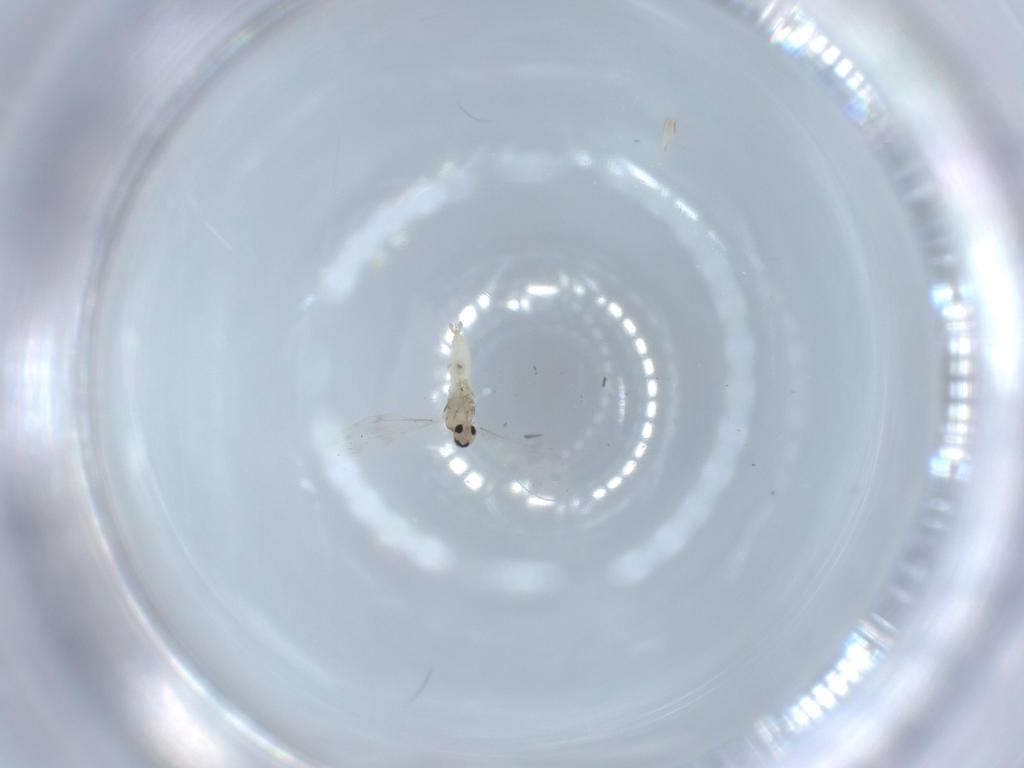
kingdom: Animalia
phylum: Arthropoda
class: Insecta
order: Diptera
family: Cecidomyiidae
